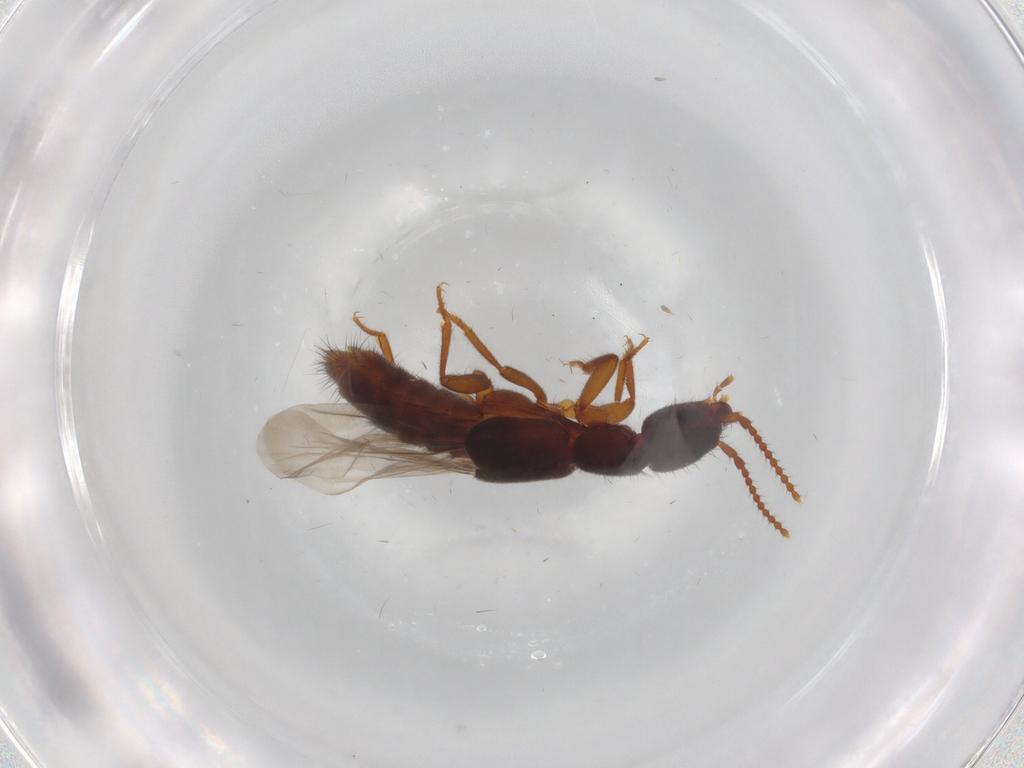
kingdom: Animalia
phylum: Arthropoda
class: Insecta
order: Coleoptera
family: Staphylinidae
